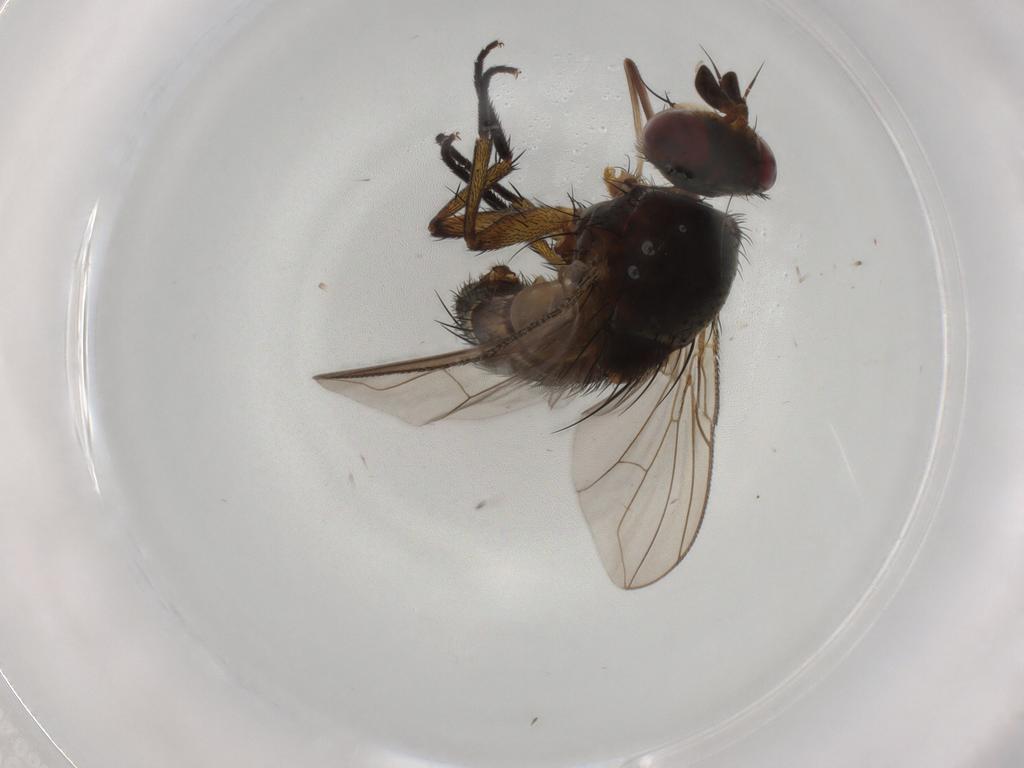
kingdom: Animalia
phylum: Arthropoda
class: Insecta
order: Diptera
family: Tachinidae
